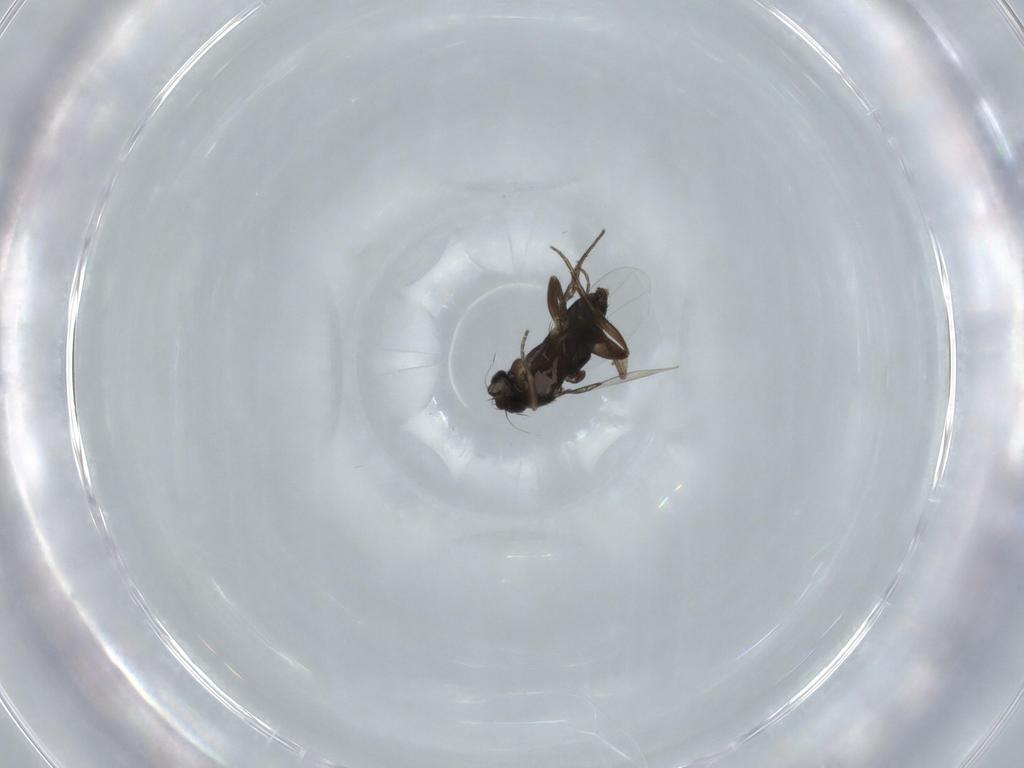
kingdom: Animalia
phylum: Arthropoda
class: Insecta
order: Diptera
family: Phoridae
